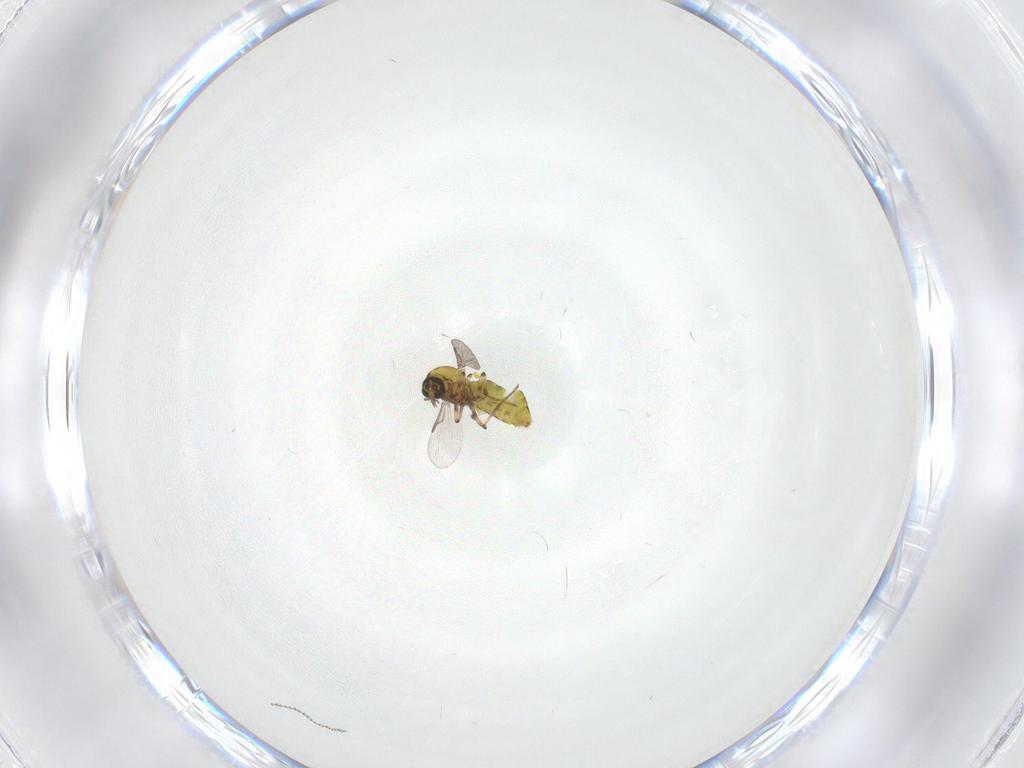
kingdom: Animalia
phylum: Arthropoda
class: Insecta
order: Diptera
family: Ceratopogonidae
